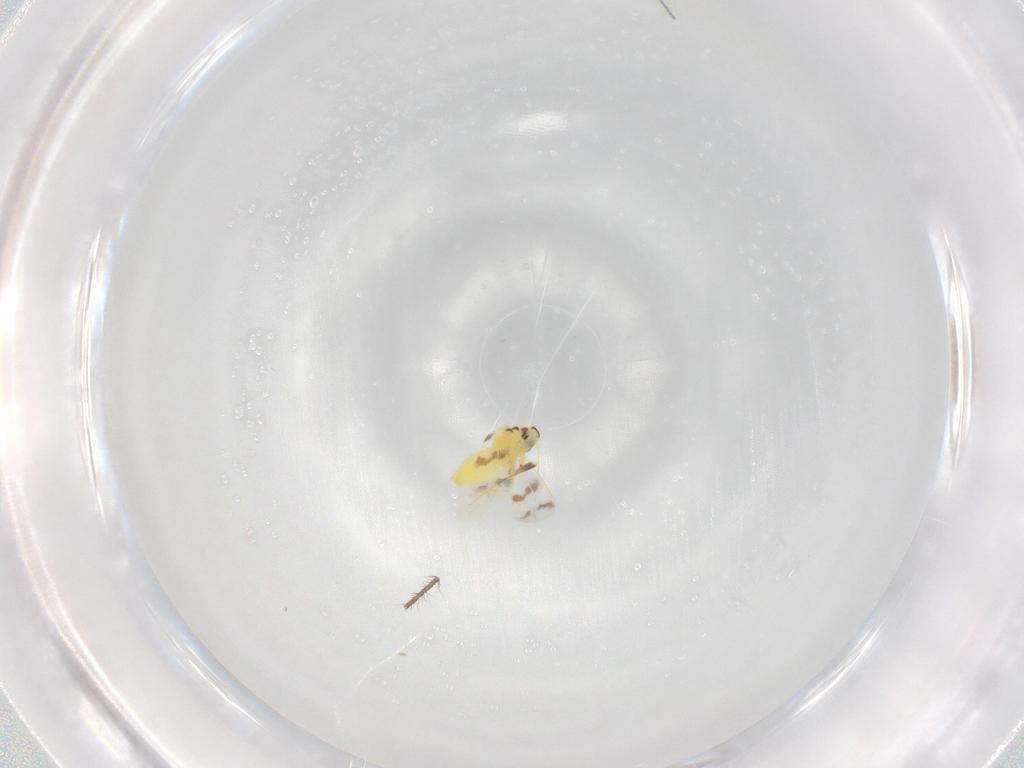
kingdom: Animalia
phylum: Arthropoda
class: Insecta
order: Hemiptera
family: Aleyrodidae
